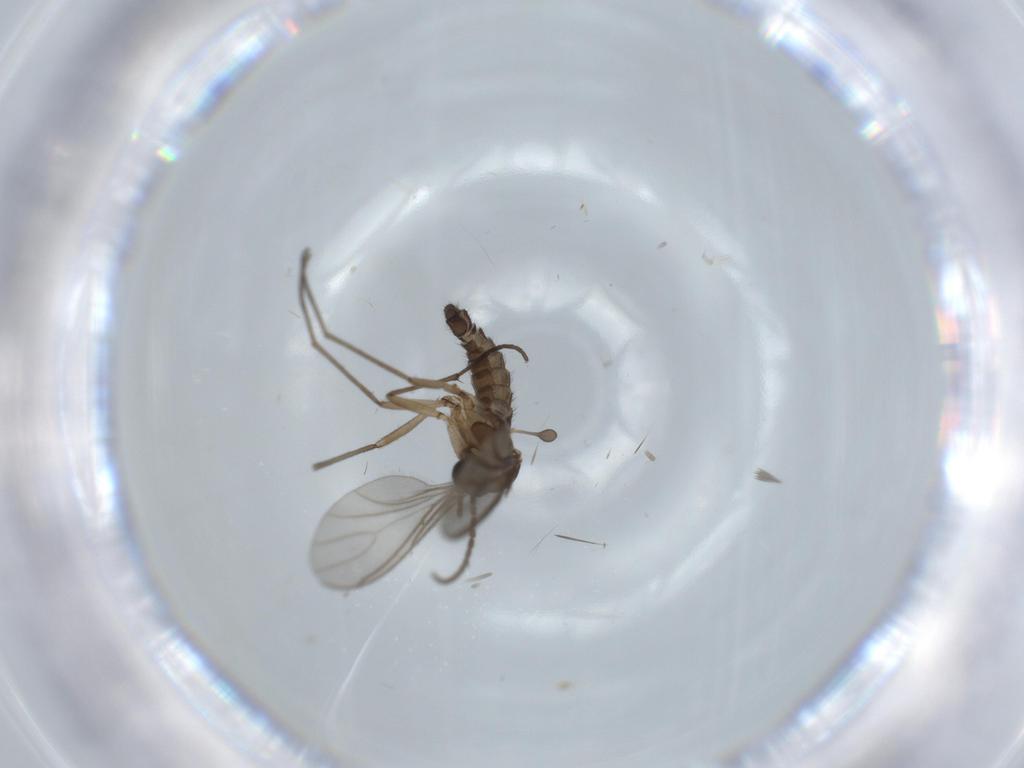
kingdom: Animalia
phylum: Arthropoda
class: Insecta
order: Diptera
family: Sciaridae
